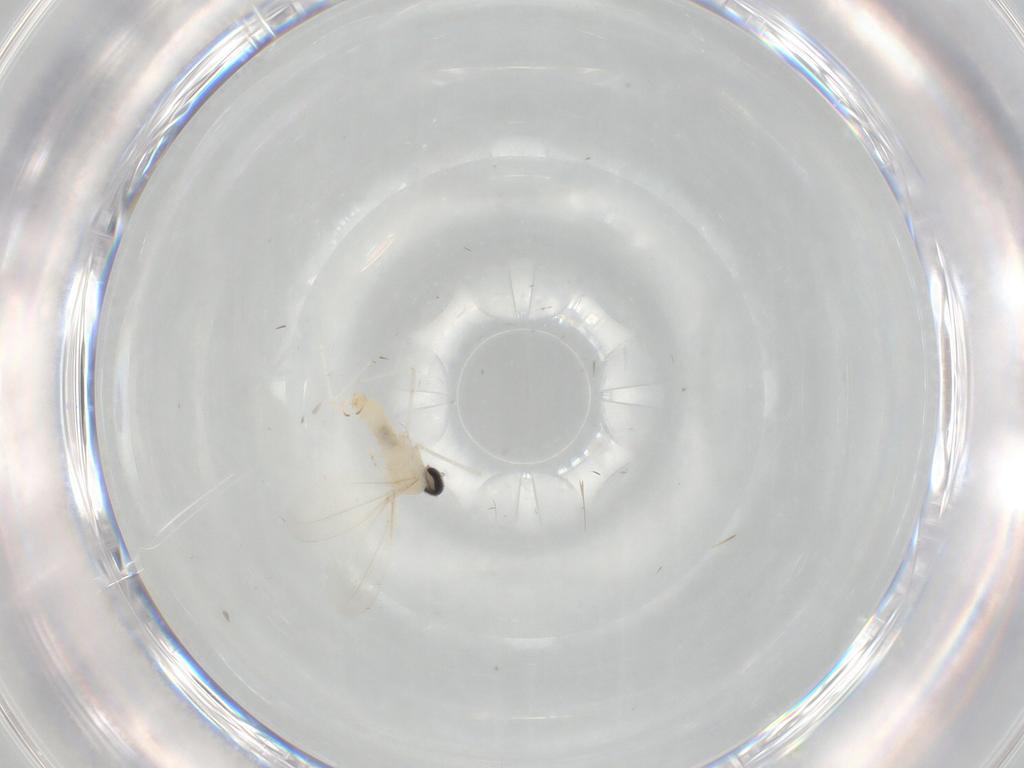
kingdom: Animalia
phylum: Arthropoda
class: Insecta
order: Diptera
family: Cecidomyiidae
